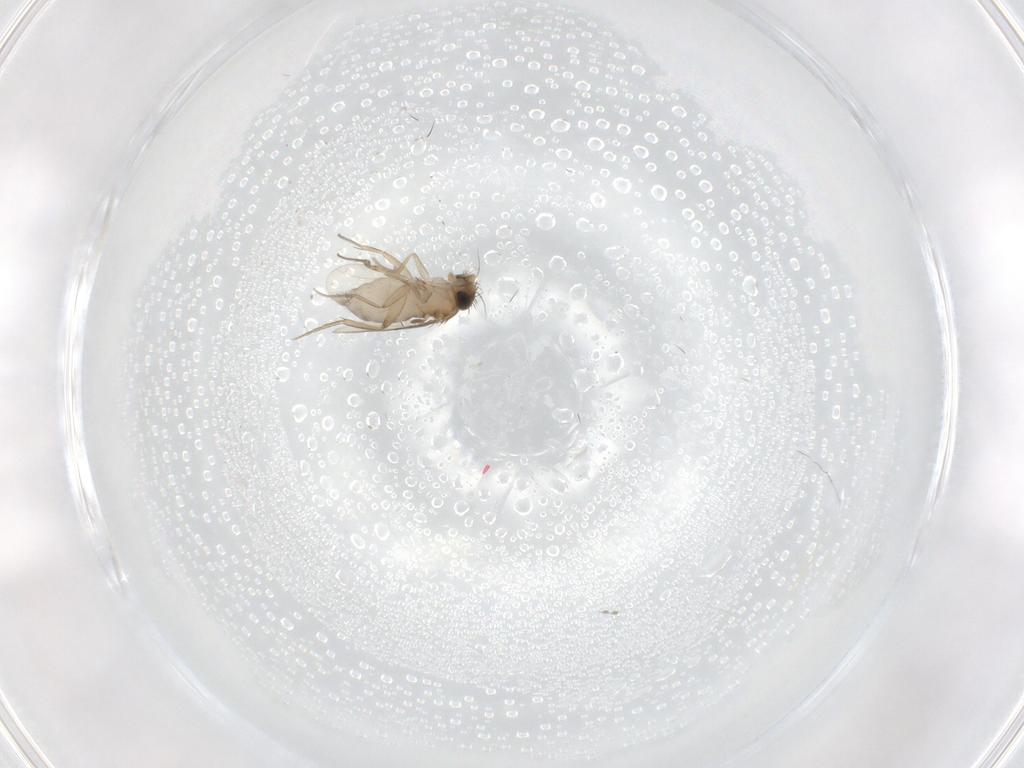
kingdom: Animalia
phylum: Arthropoda
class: Insecta
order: Diptera
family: Phoridae
